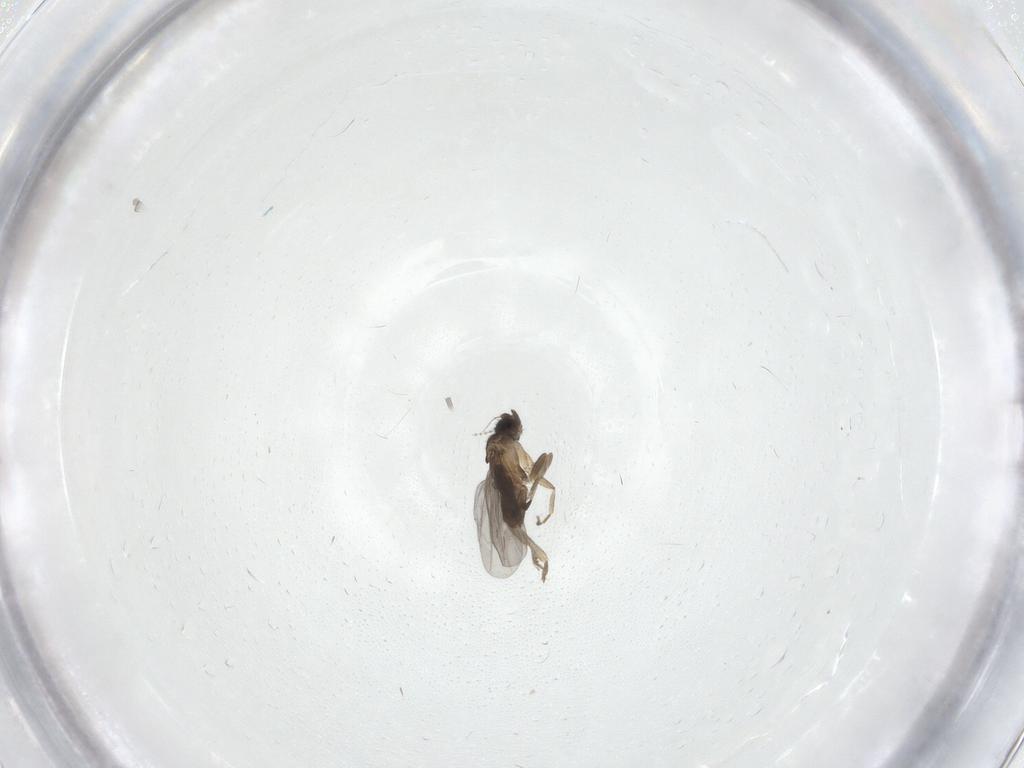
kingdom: Animalia
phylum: Arthropoda
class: Insecta
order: Diptera
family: Cecidomyiidae
